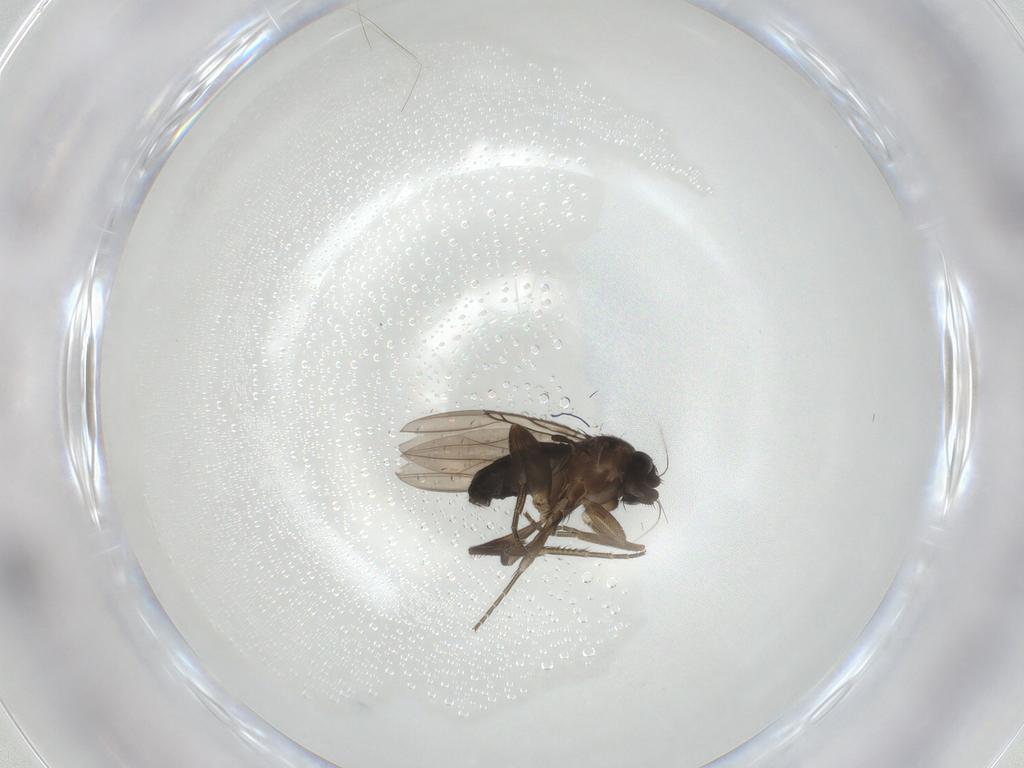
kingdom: Animalia
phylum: Arthropoda
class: Insecta
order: Diptera
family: Phoridae
